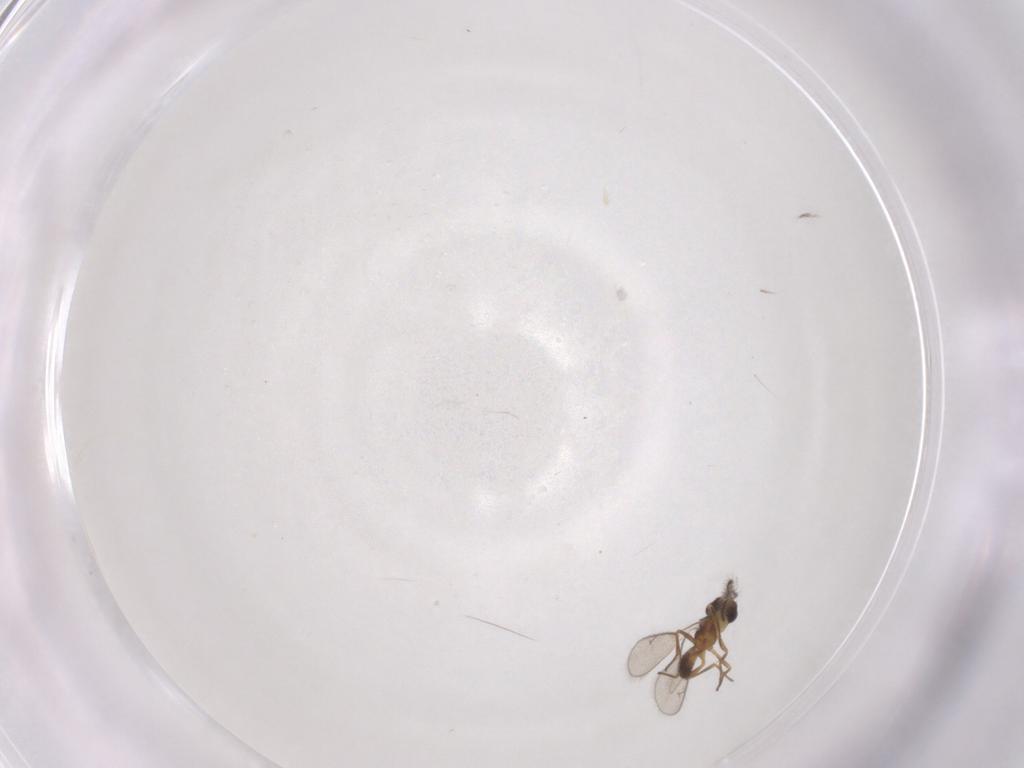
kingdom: Animalia
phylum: Arthropoda
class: Insecta
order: Hymenoptera
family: Eupelmidae
